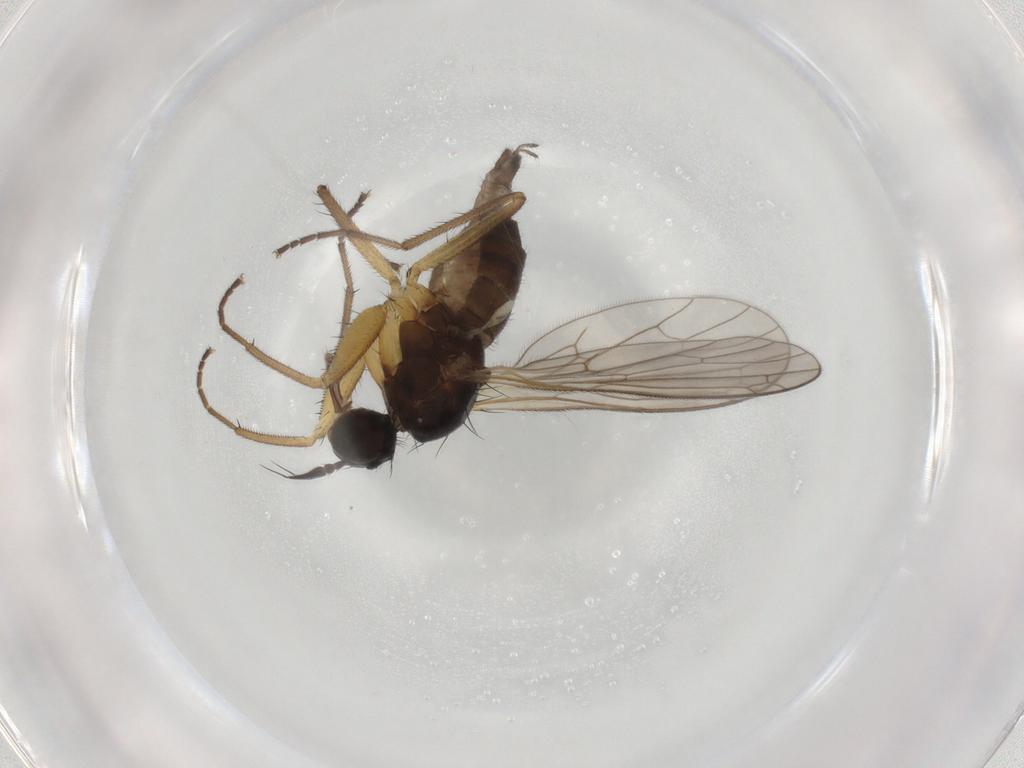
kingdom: Animalia
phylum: Arthropoda
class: Insecta
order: Diptera
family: Empididae
